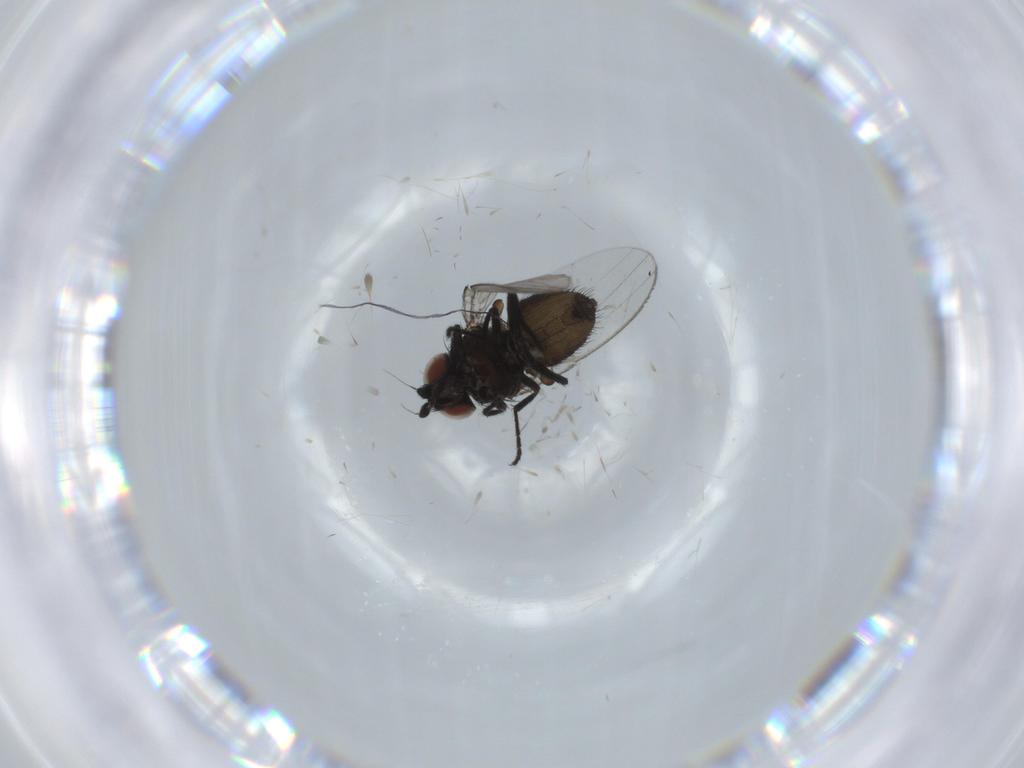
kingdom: Animalia
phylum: Arthropoda
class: Insecta
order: Diptera
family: Milichiidae
